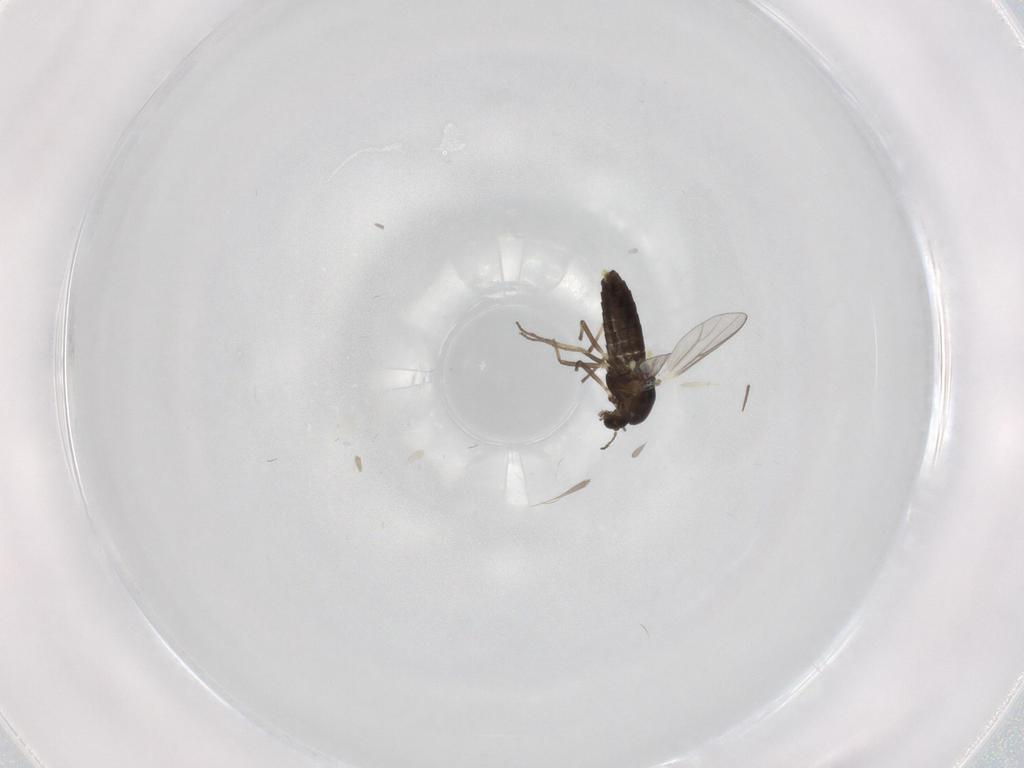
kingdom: Animalia
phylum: Arthropoda
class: Insecta
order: Diptera
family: Chironomidae
